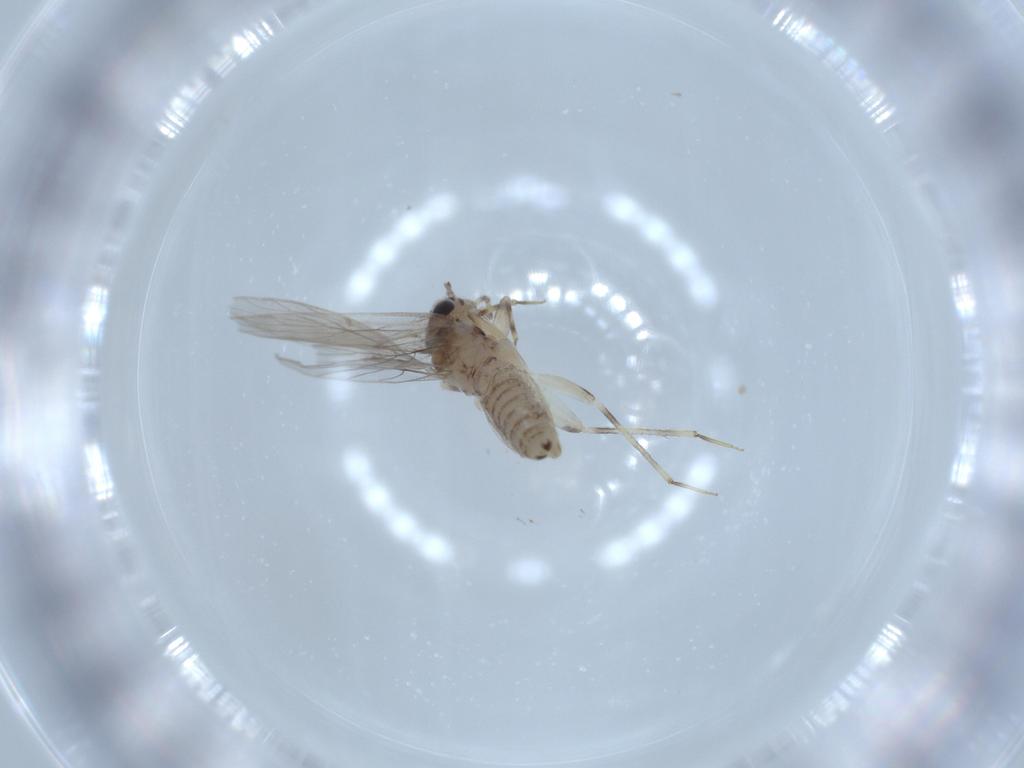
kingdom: Animalia
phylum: Arthropoda
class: Insecta
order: Psocodea
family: Lepidopsocidae
